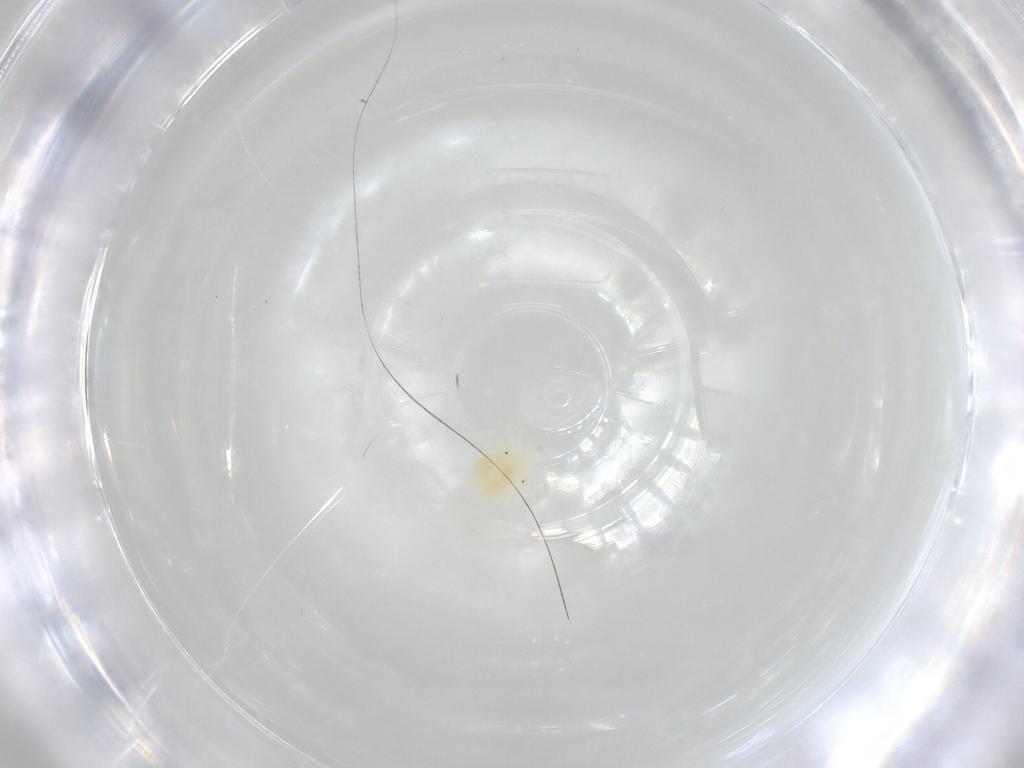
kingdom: Animalia
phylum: Arthropoda
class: Arachnida
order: Trombidiformes
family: Anystidae
